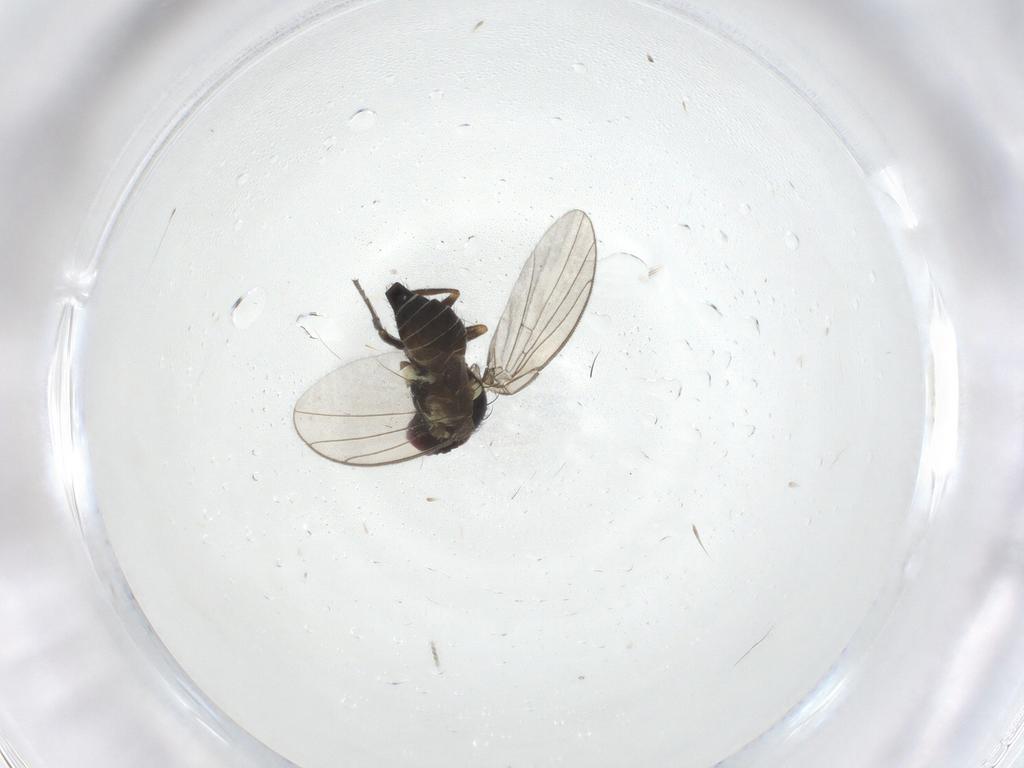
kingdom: Animalia
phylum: Arthropoda
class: Insecta
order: Diptera
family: Agromyzidae
